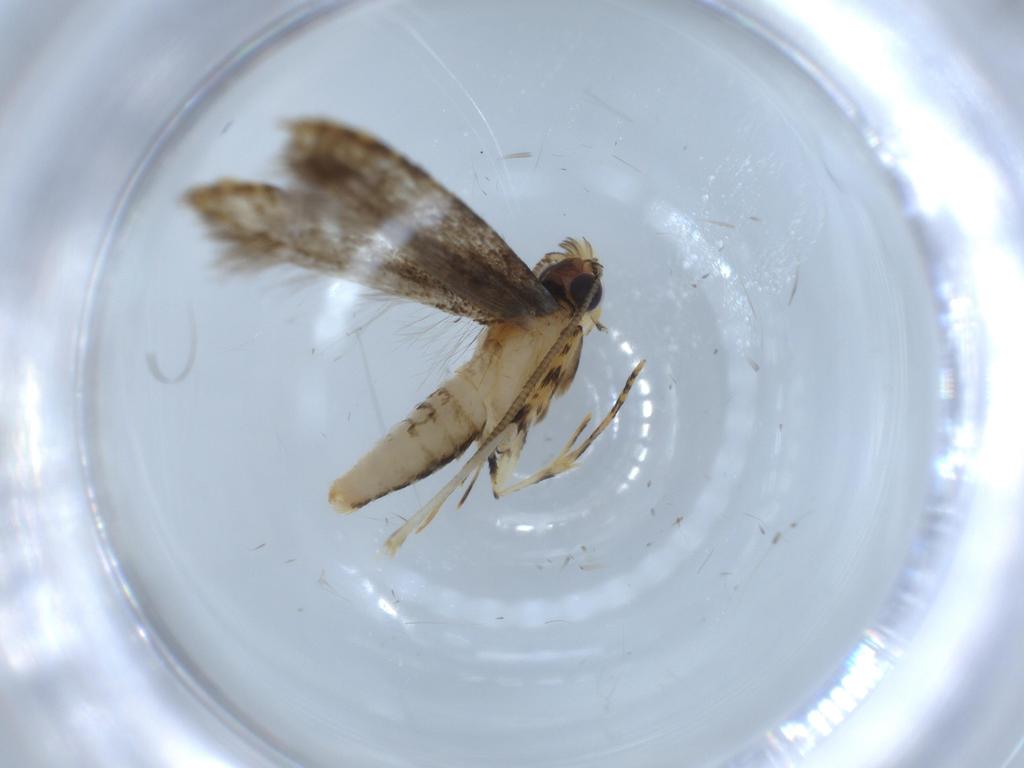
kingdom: Animalia
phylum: Arthropoda
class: Insecta
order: Lepidoptera
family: Tineidae
